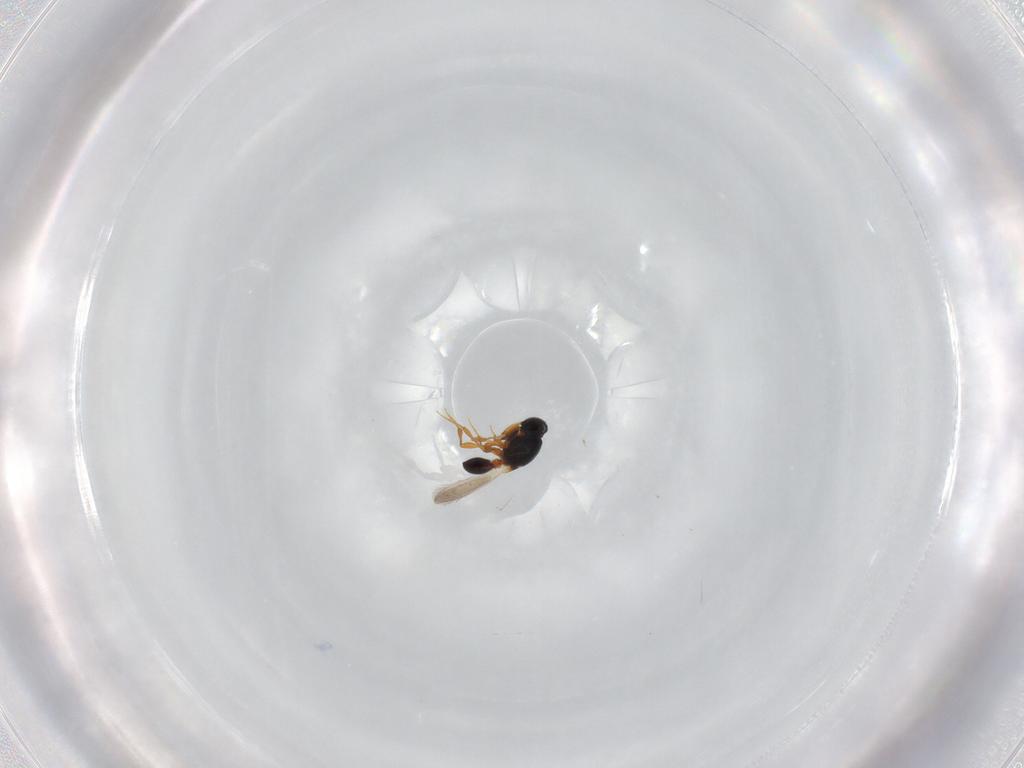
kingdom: Animalia
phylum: Arthropoda
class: Insecta
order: Hymenoptera
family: Platygastridae
